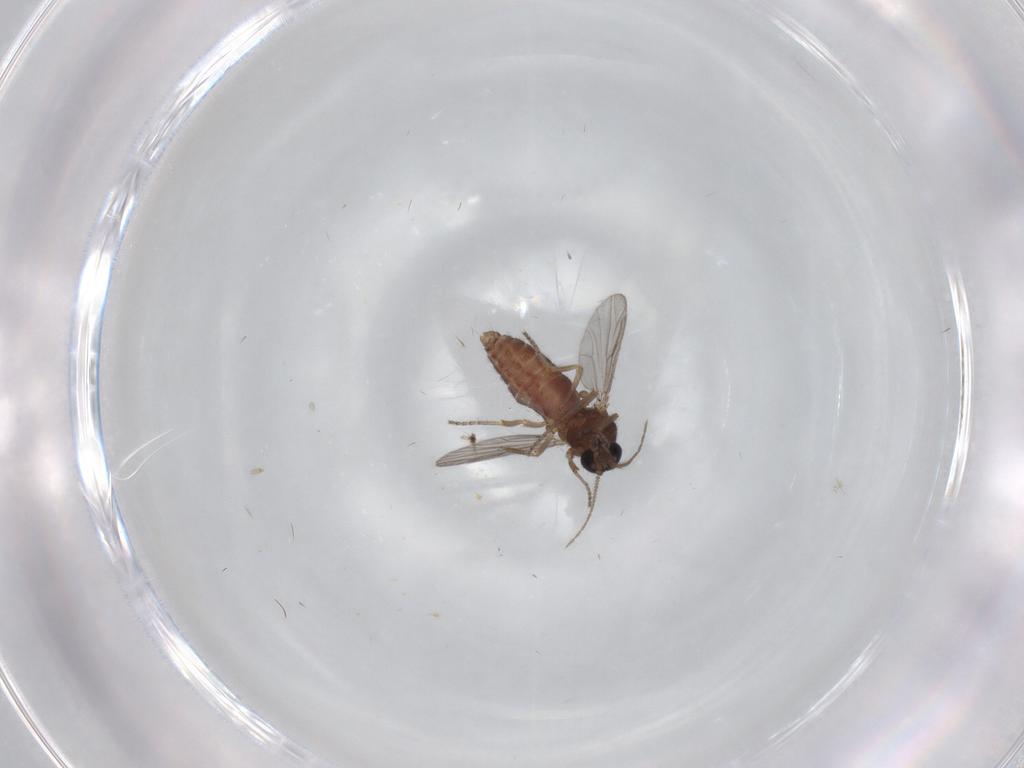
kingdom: Animalia
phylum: Arthropoda
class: Insecta
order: Diptera
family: Ceratopogonidae
